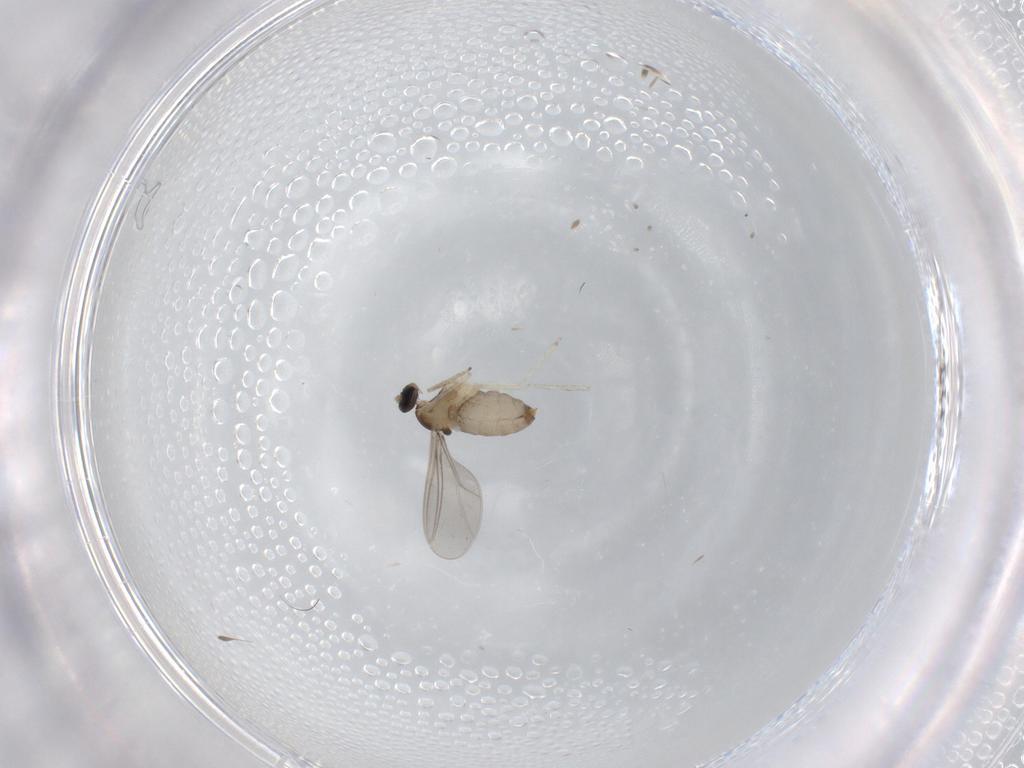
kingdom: Animalia
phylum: Arthropoda
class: Insecta
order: Diptera
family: Cecidomyiidae
